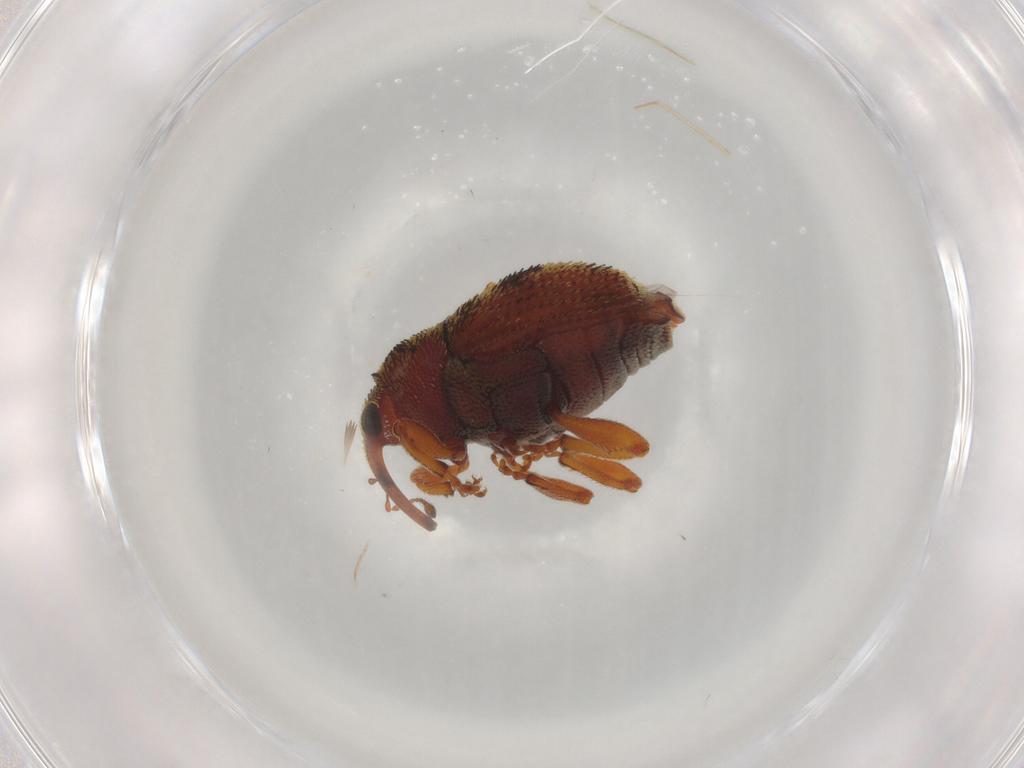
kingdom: Animalia
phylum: Arthropoda
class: Insecta
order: Coleoptera
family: Curculionidae
